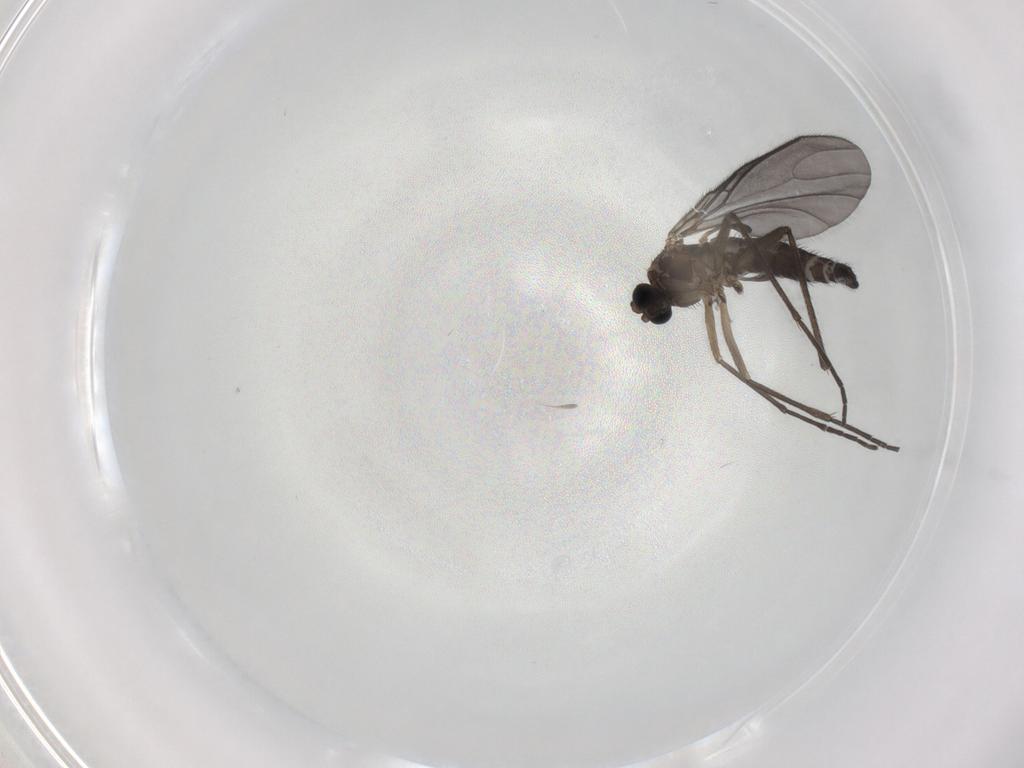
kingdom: Animalia
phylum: Arthropoda
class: Insecta
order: Diptera
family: Sciaridae
